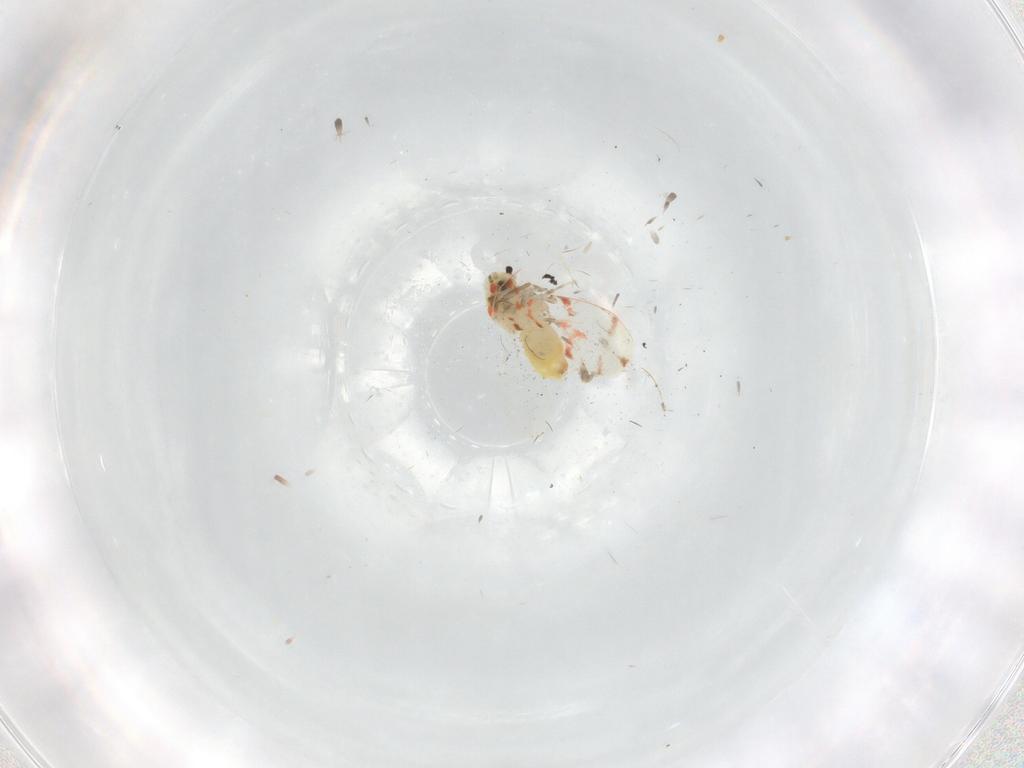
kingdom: Animalia
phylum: Arthropoda
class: Insecta
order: Hemiptera
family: Aleyrodidae
